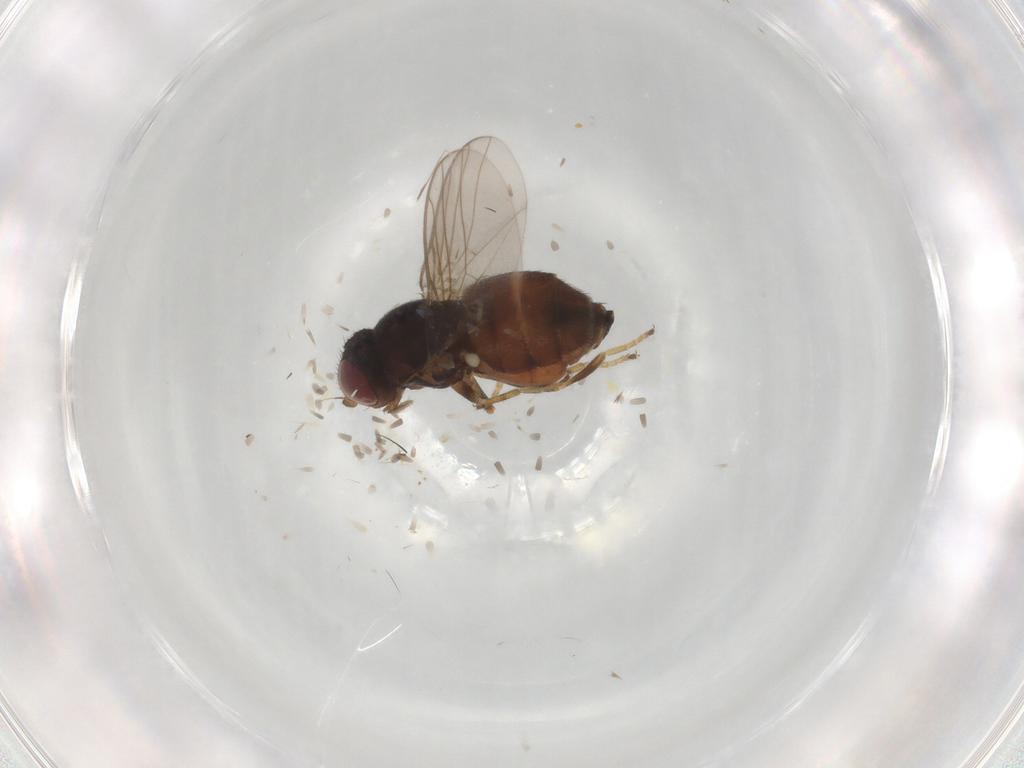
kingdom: Animalia
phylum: Arthropoda
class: Insecta
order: Diptera
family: Chloropidae
